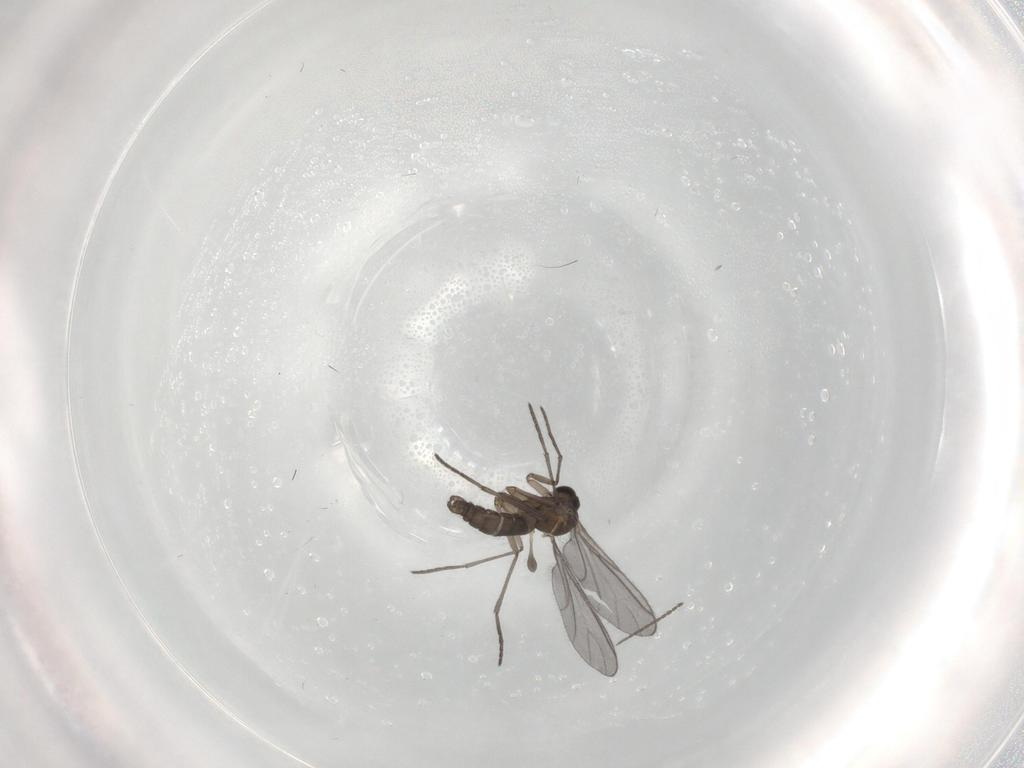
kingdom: Animalia
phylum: Arthropoda
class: Insecta
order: Diptera
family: Cecidomyiidae
